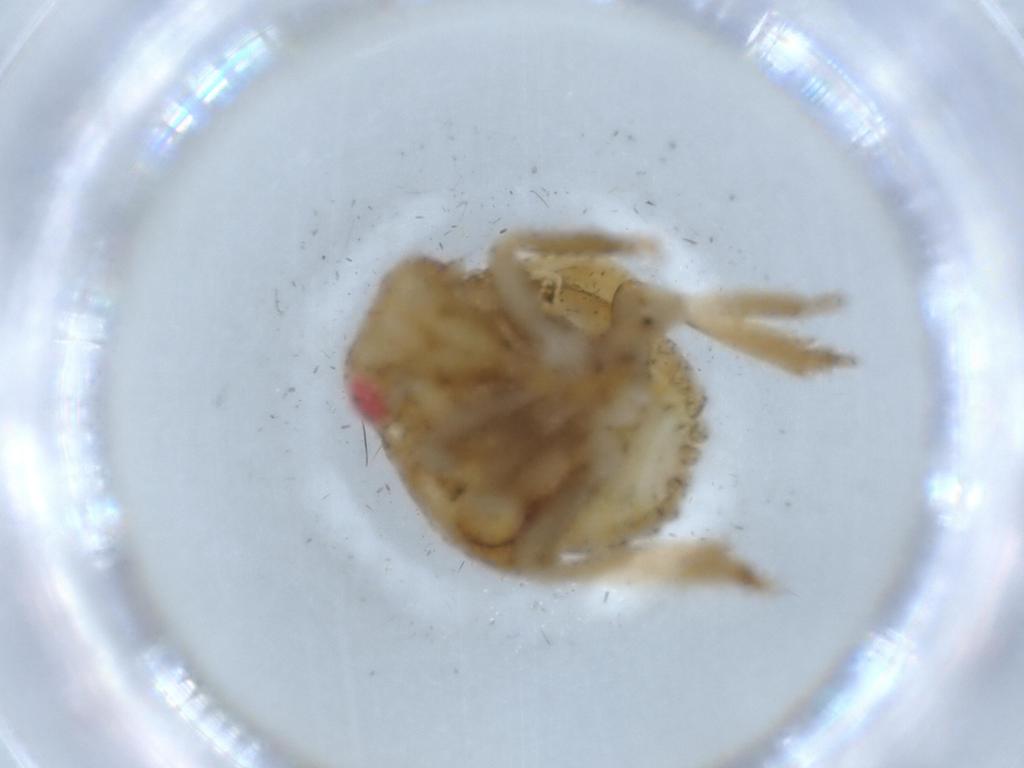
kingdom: Animalia
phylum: Arthropoda
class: Insecta
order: Hemiptera
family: Acanaloniidae
